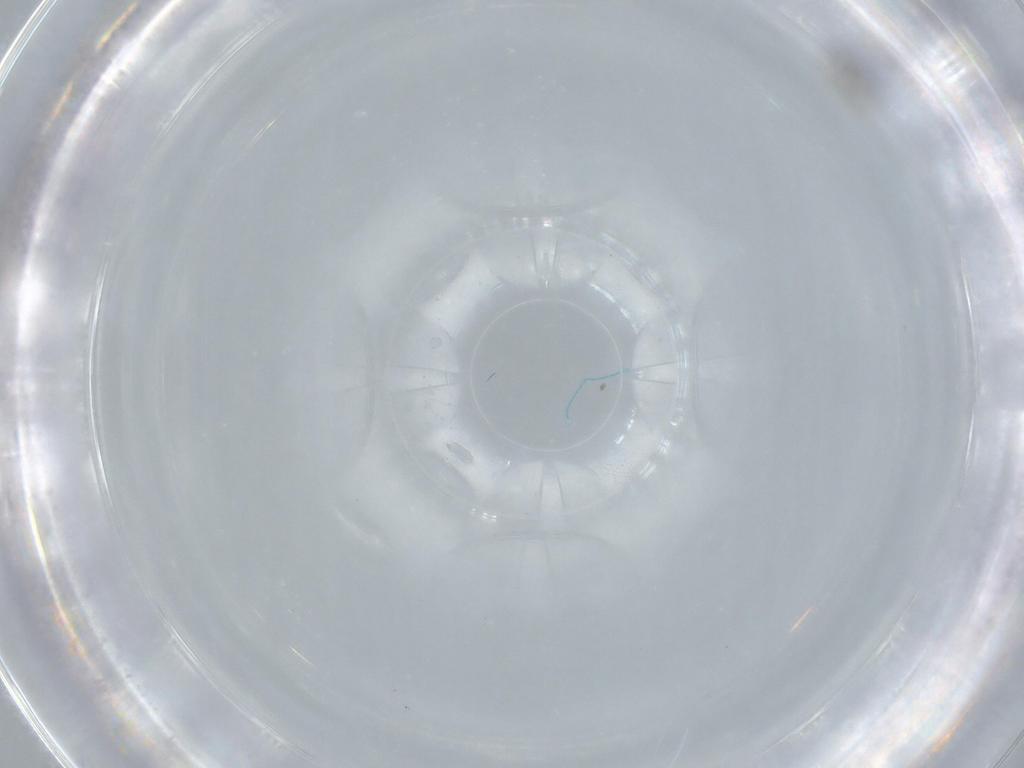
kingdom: Animalia
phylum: Arthropoda
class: Insecta
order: Diptera
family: Cecidomyiidae
